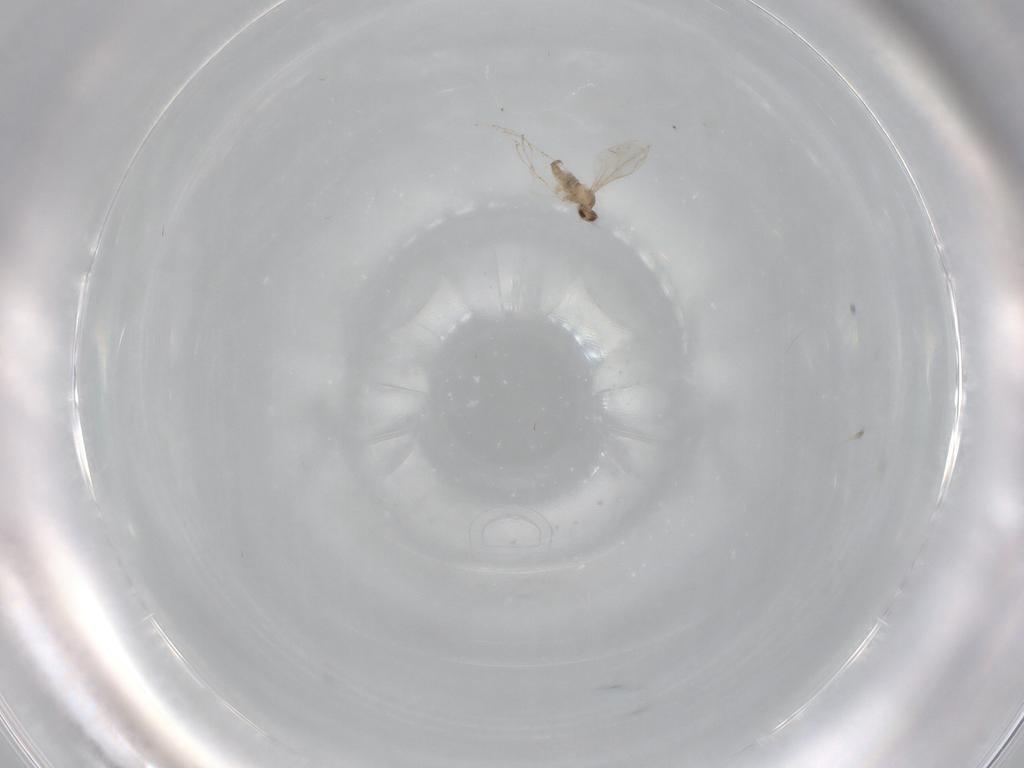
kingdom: Animalia
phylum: Arthropoda
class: Insecta
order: Diptera
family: Cecidomyiidae
